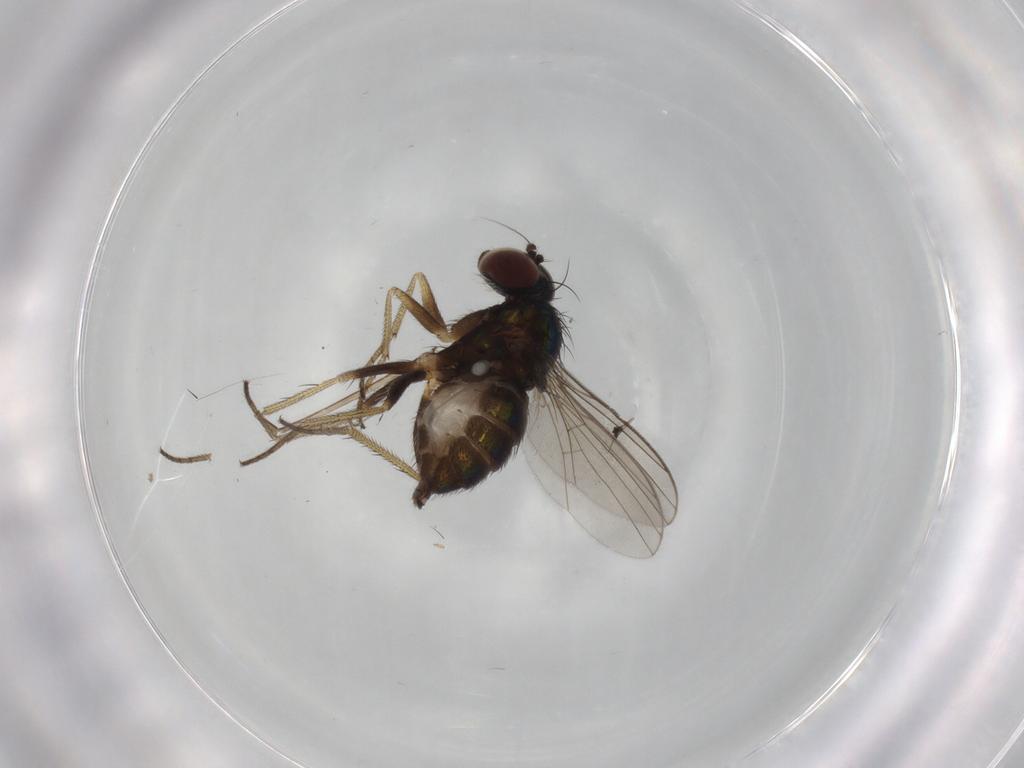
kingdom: Animalia
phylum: Arthropoda
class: Insecta
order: Diptera
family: Cecidomyiidae
